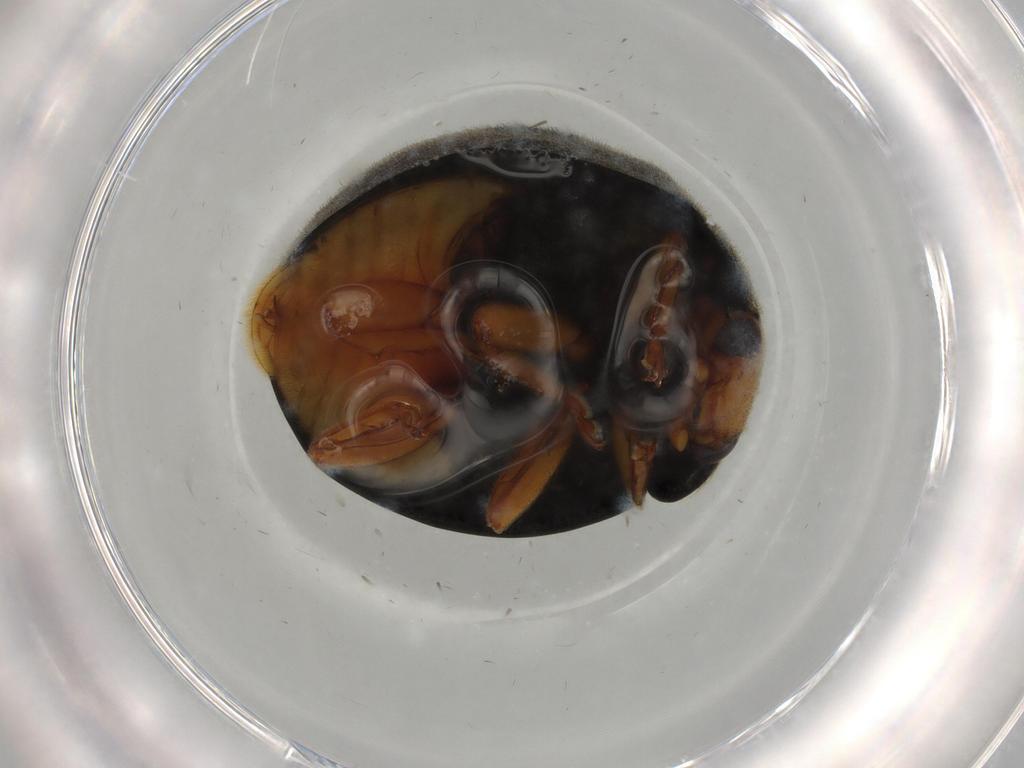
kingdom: Animalia
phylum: Arthropoda
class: Insecta
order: Coleoptera
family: Coccinellidae
